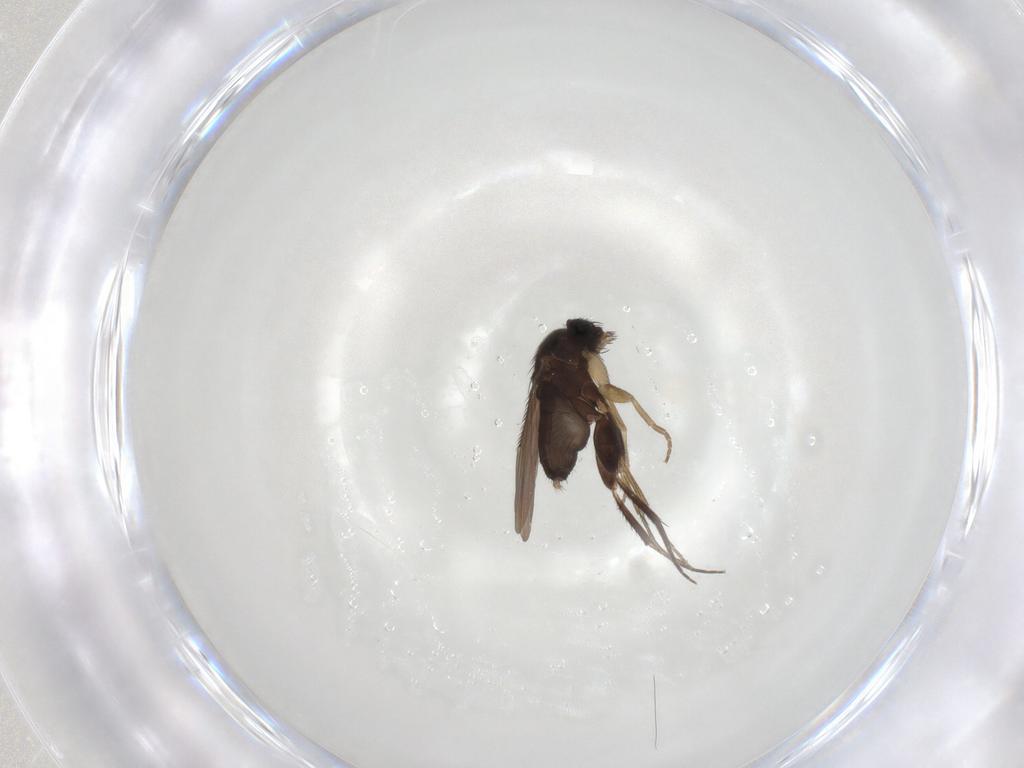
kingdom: Animalia
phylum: Arthropoda
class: Insecta
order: Diptera
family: Phoridae
